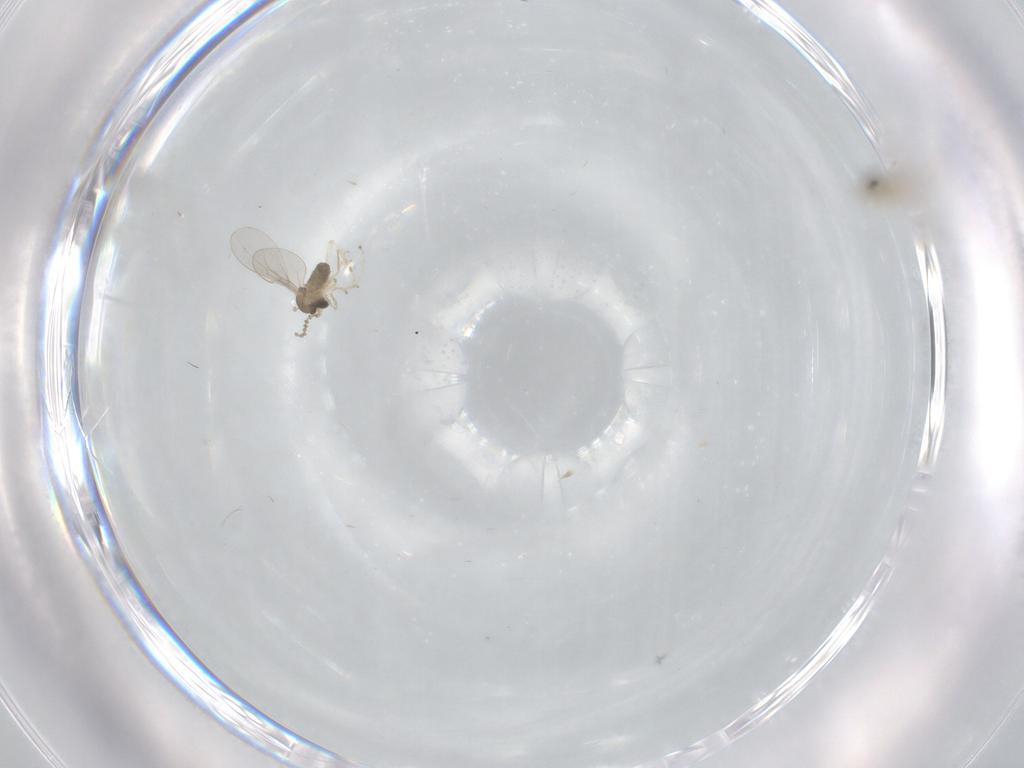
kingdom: Animalia
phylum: Arthropoda
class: Insecta
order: Diptera
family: Cecidomyiidae
